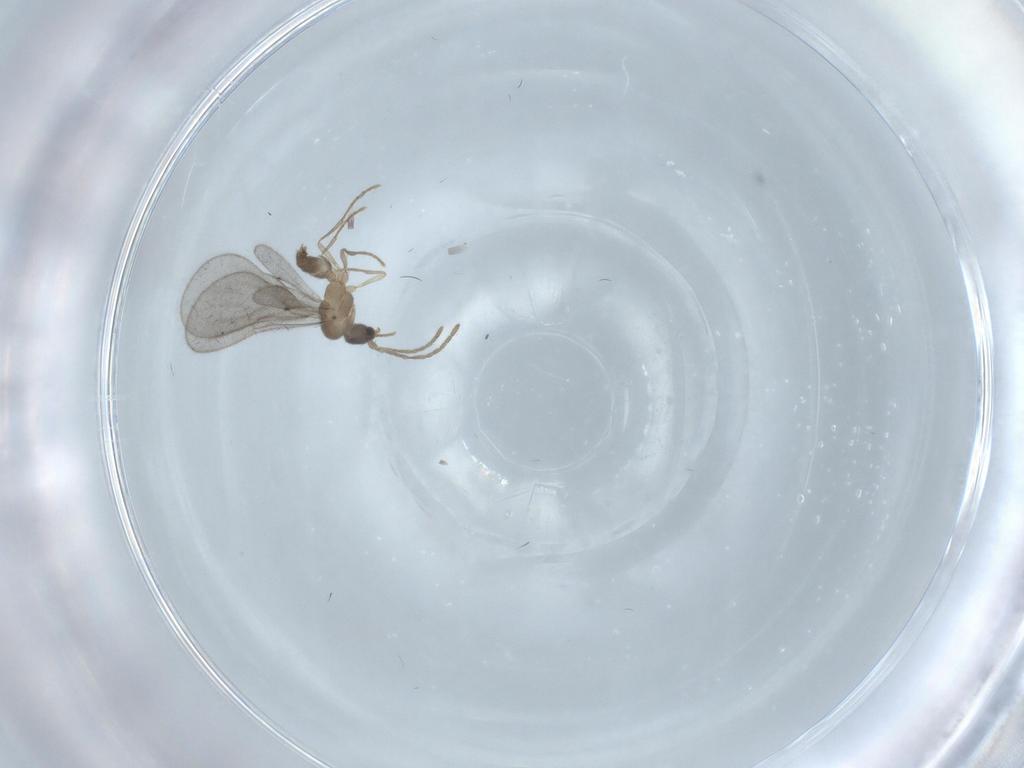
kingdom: Animalia
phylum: Arthropoda
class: Insecta
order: Hymenoptera
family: Formicidae
